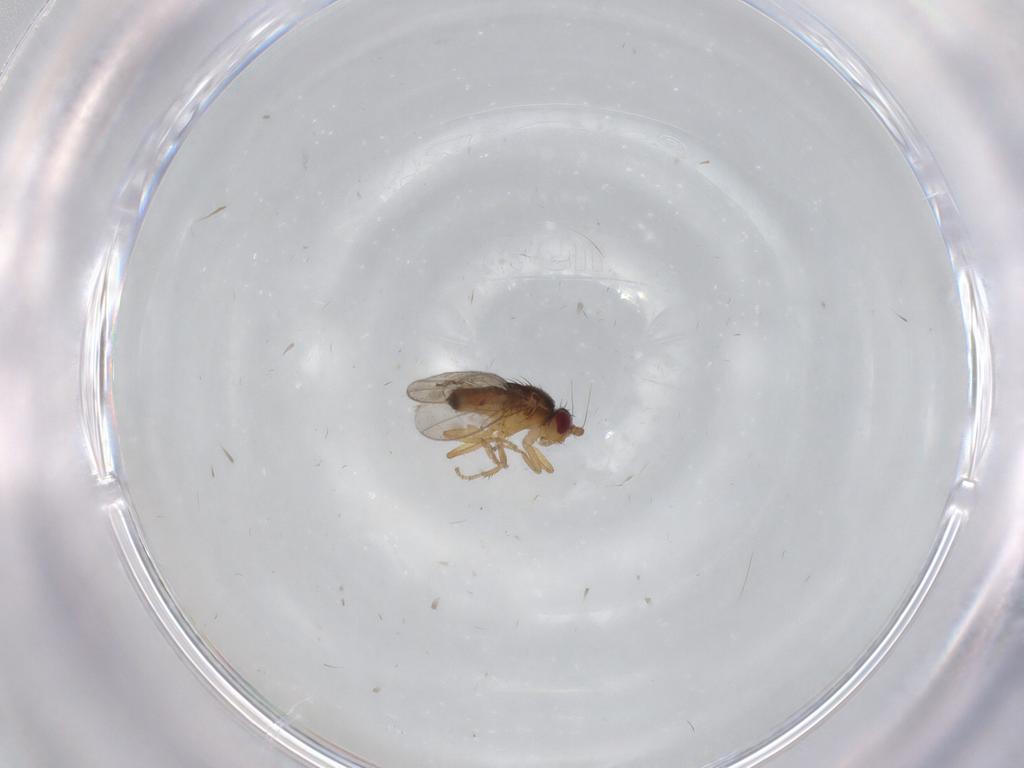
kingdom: Animalia
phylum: Arthropoda
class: Insecta
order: Diptera
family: Sphaeroceridae
